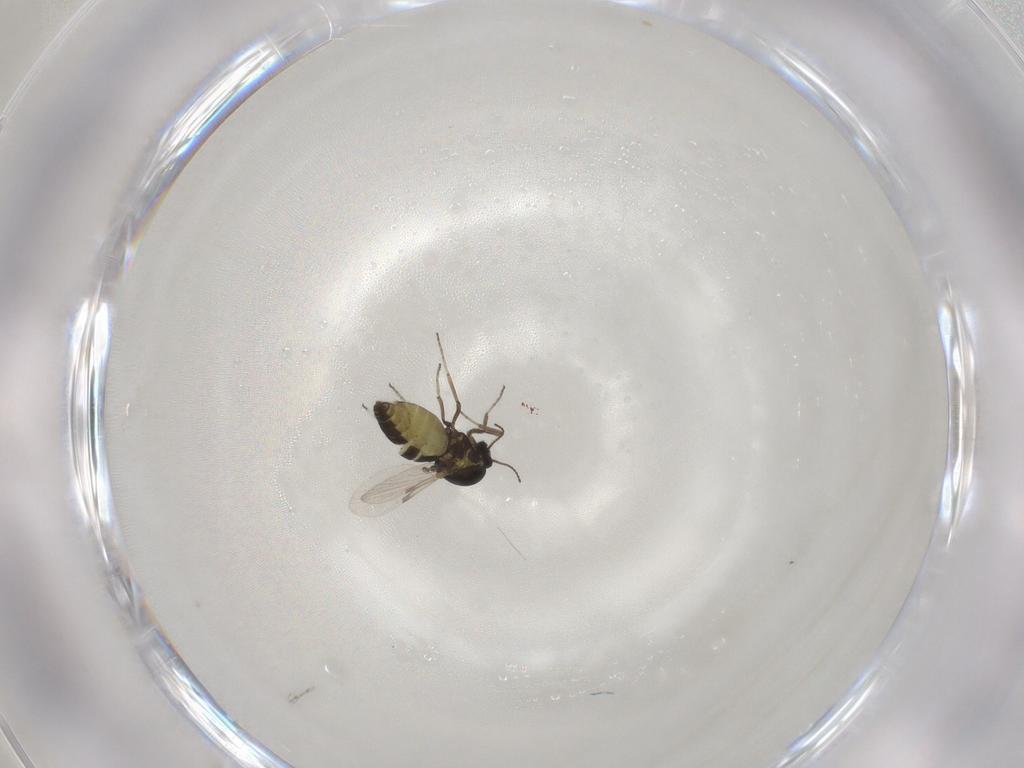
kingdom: Animalia
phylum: Arthropoda
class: Insecta
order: Diptera
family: Ceratopogonidae
